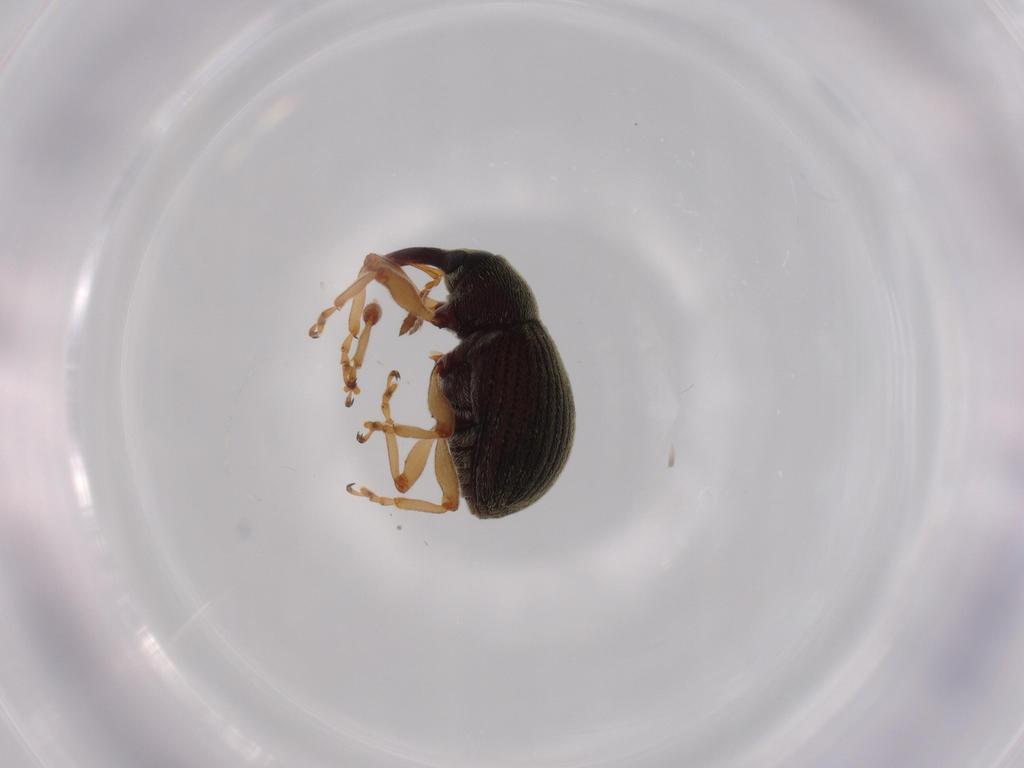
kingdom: Animalia
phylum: Arthropoda
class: Insecta
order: Coleoptera
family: Curculionidae
